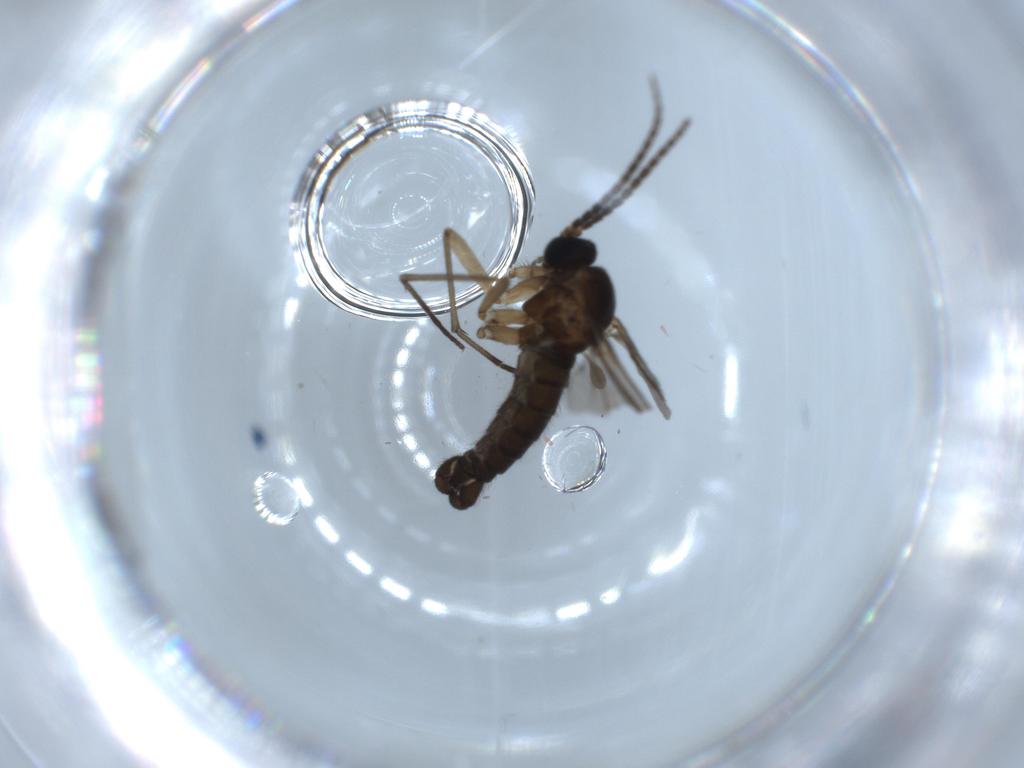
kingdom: Animalia
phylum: Arthropoda
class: Insecta
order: Diptera
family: Sciaridae
